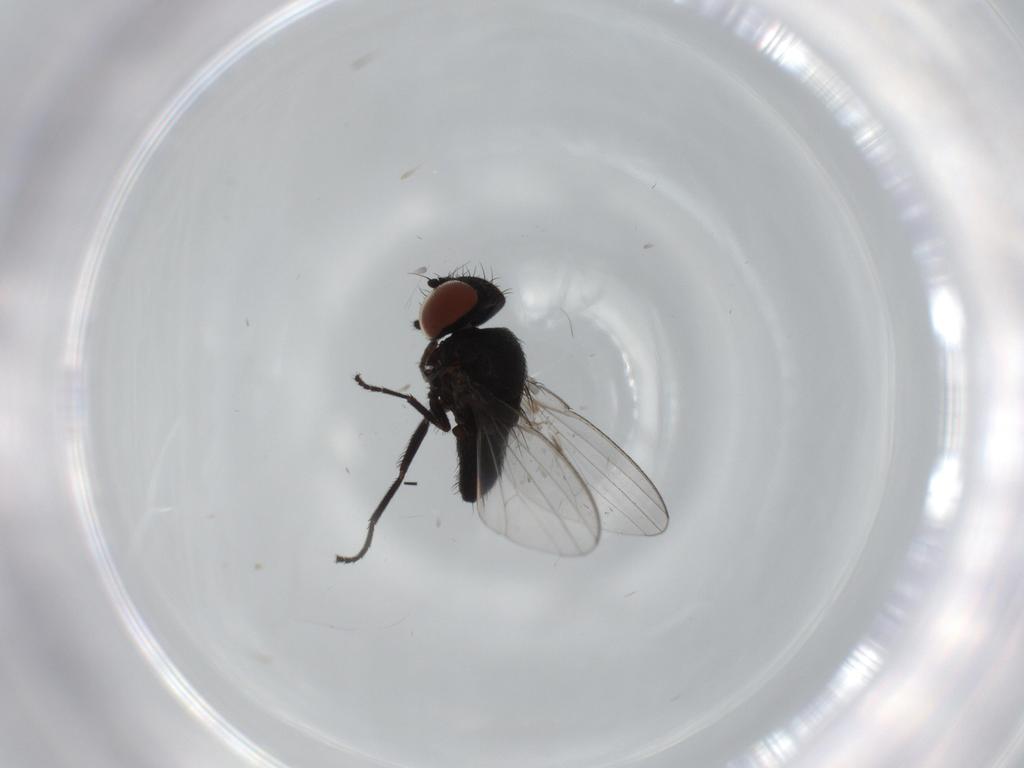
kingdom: Animalia
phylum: Arthropoda
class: Insecta
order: Diptera
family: Milichiidae
